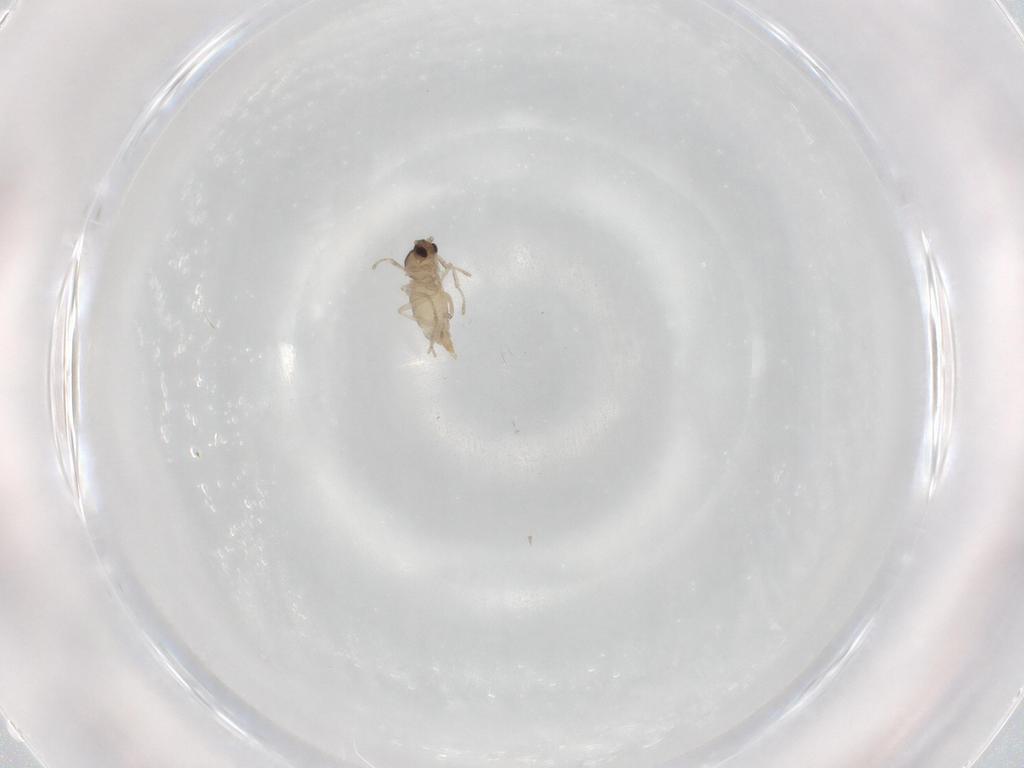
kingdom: Animalia
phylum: Arthropoda
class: Insecta
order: Diptera
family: Cecidomyiidae
